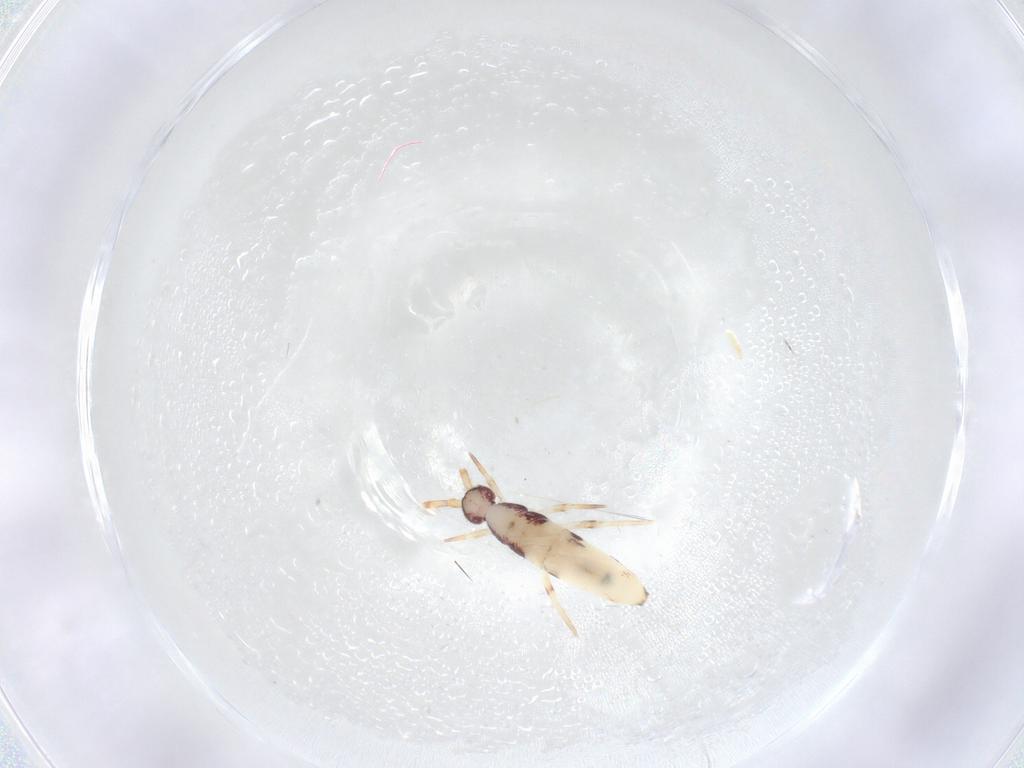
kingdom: Animalia
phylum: Arthropoda
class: Collembola
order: Entomobryomorpha
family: Entomobryidae
